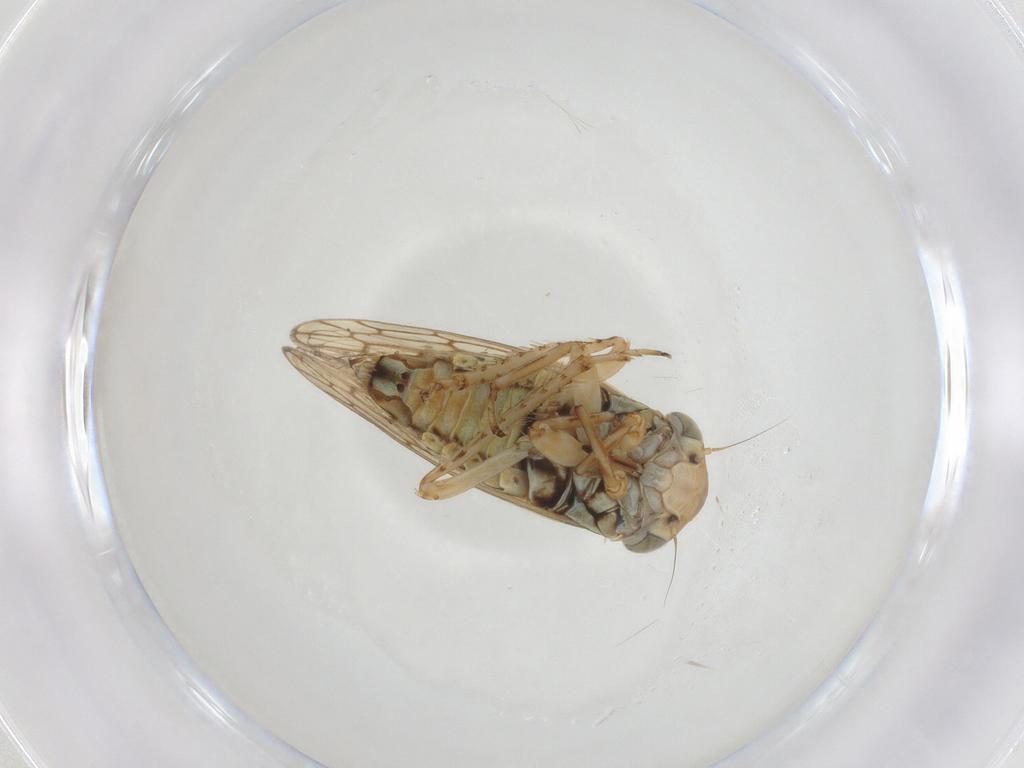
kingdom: Animalia
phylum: Arthropoda
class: Insecta
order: Hemiptera
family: Cicadellidae
